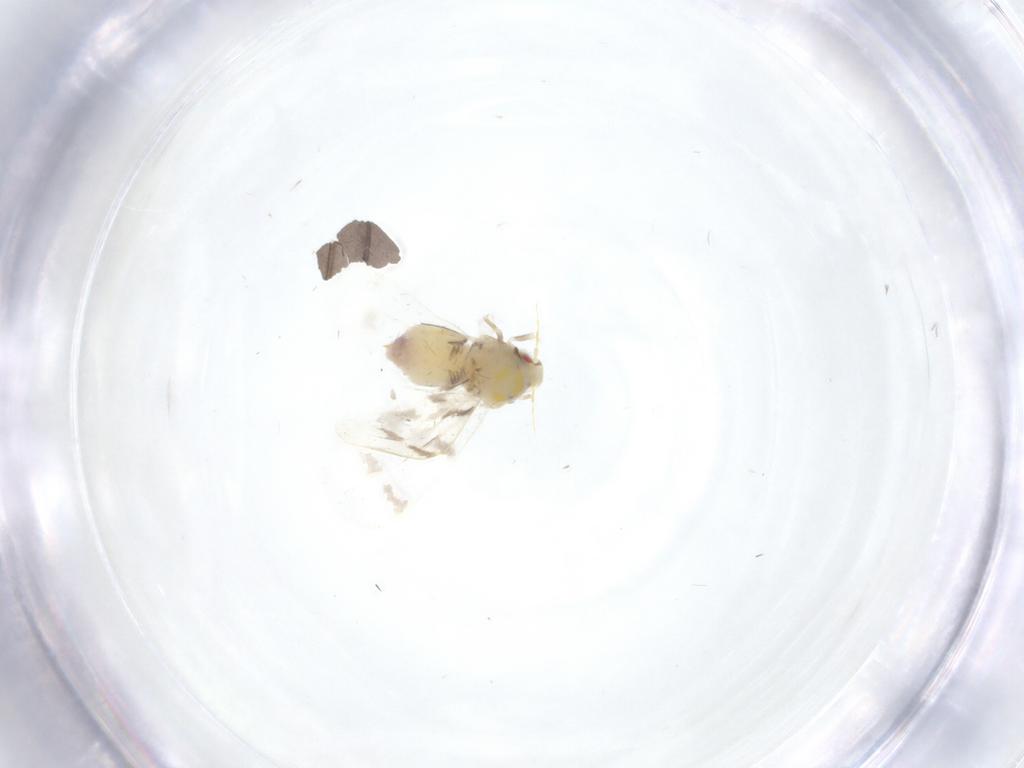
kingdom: Animalia
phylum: Arthropoda
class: Insecta
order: Hemiptera
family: Aleyrodidae
